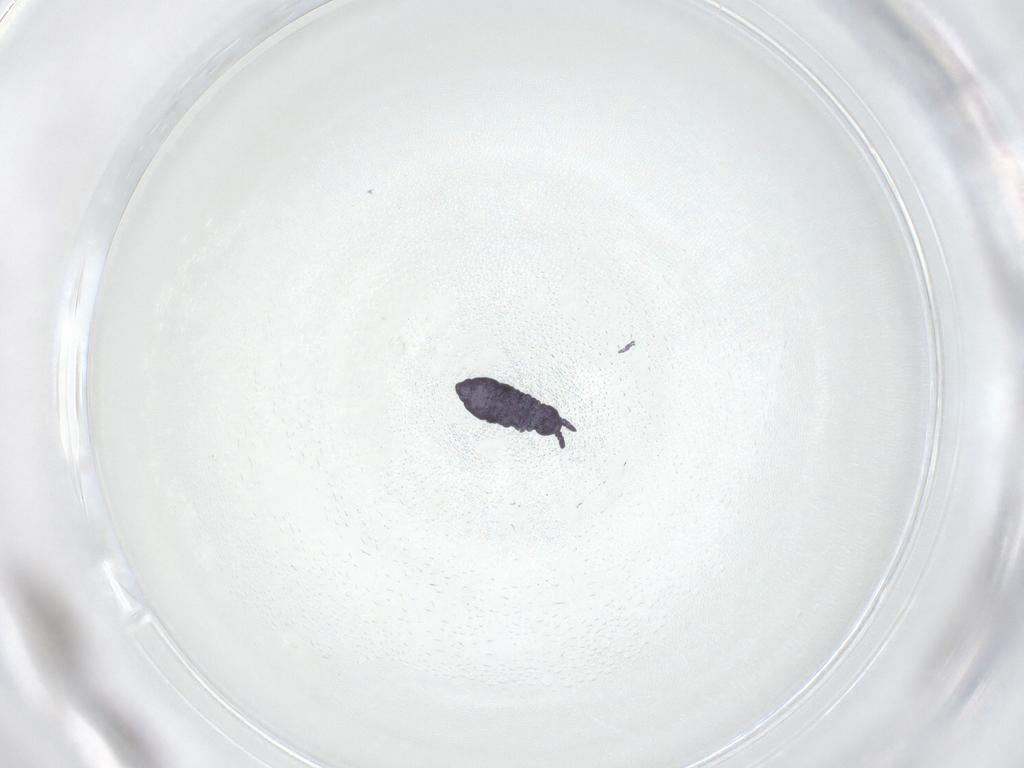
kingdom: Animalia
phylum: Arthropoda
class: Collembola
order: Poduromorpha
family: Brachystomellidae
